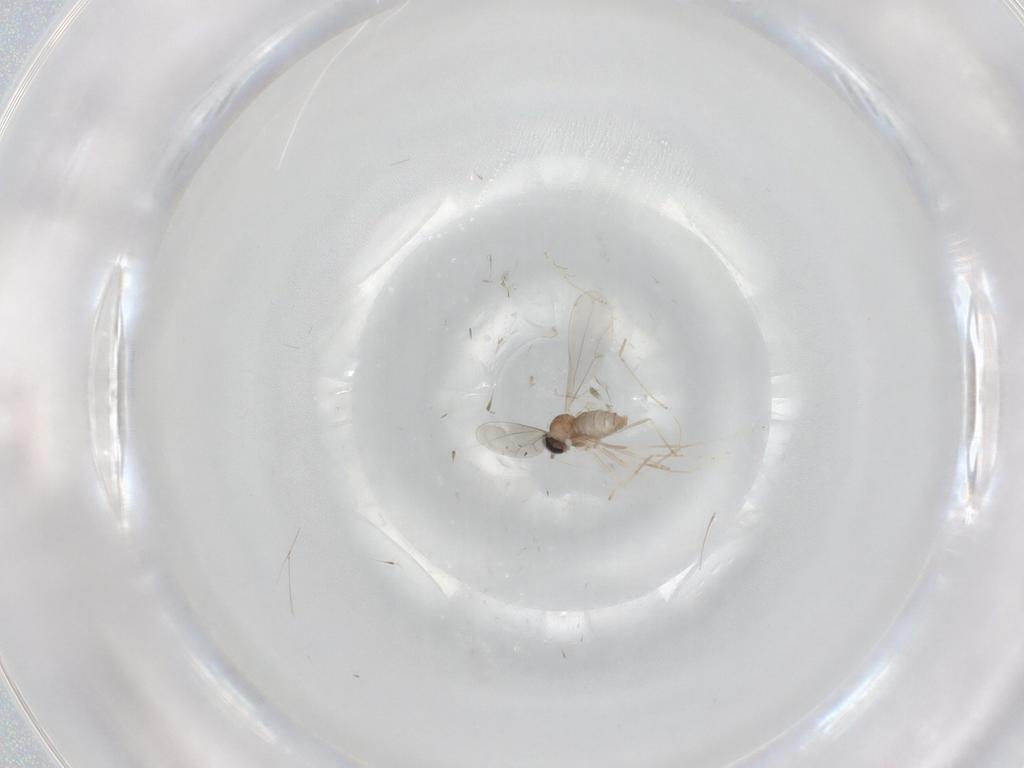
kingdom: Animalia
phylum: Arthropoda
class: Insecta
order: Diptera
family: Cecidomyiidae
